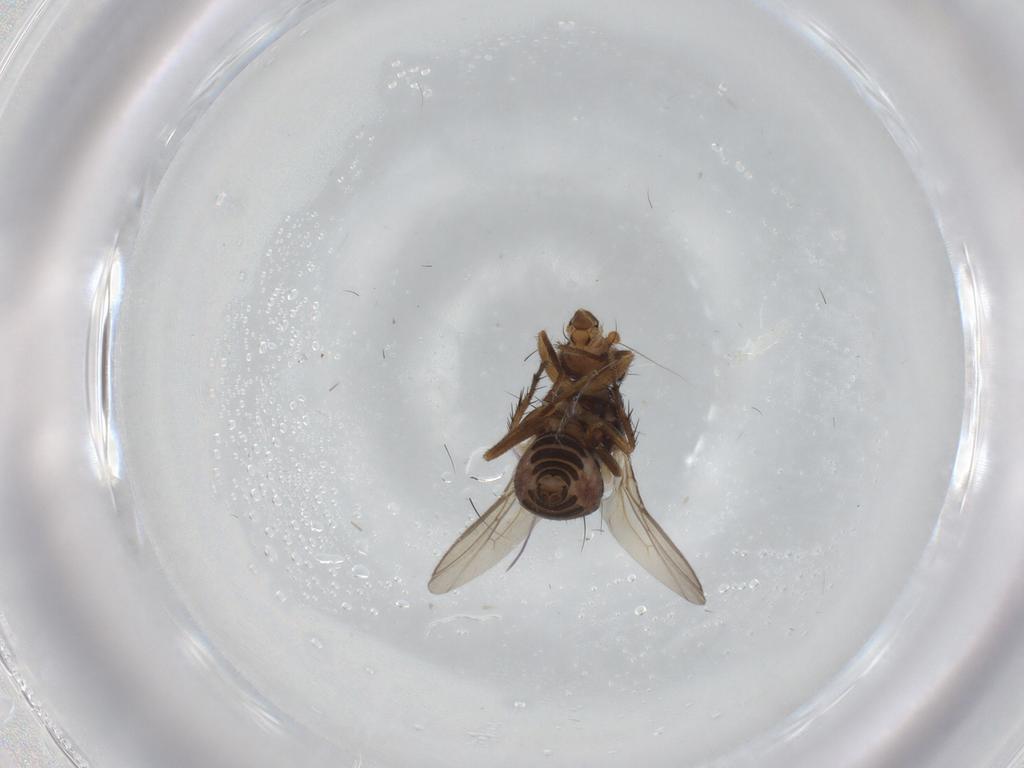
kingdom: Animalia
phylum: Arthropoda
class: Insecta
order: Diptera
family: Sphaeroceridae
